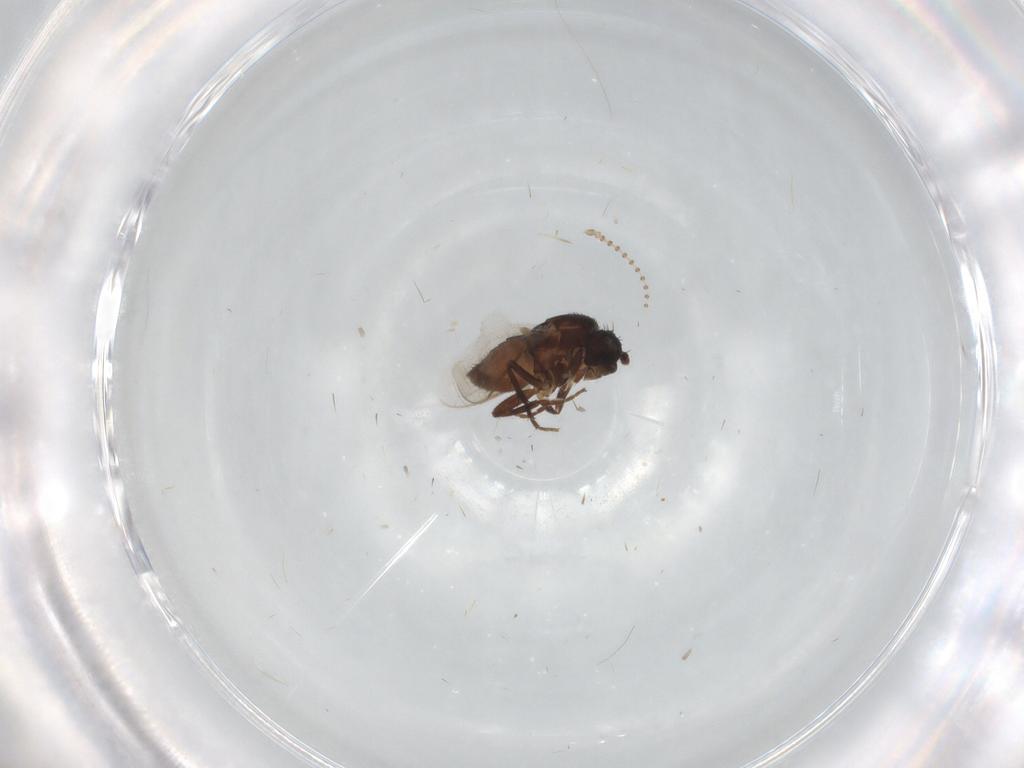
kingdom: Animalia
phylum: Arthropoda
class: Insecta
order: Diptera
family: Sphaeroceridae
